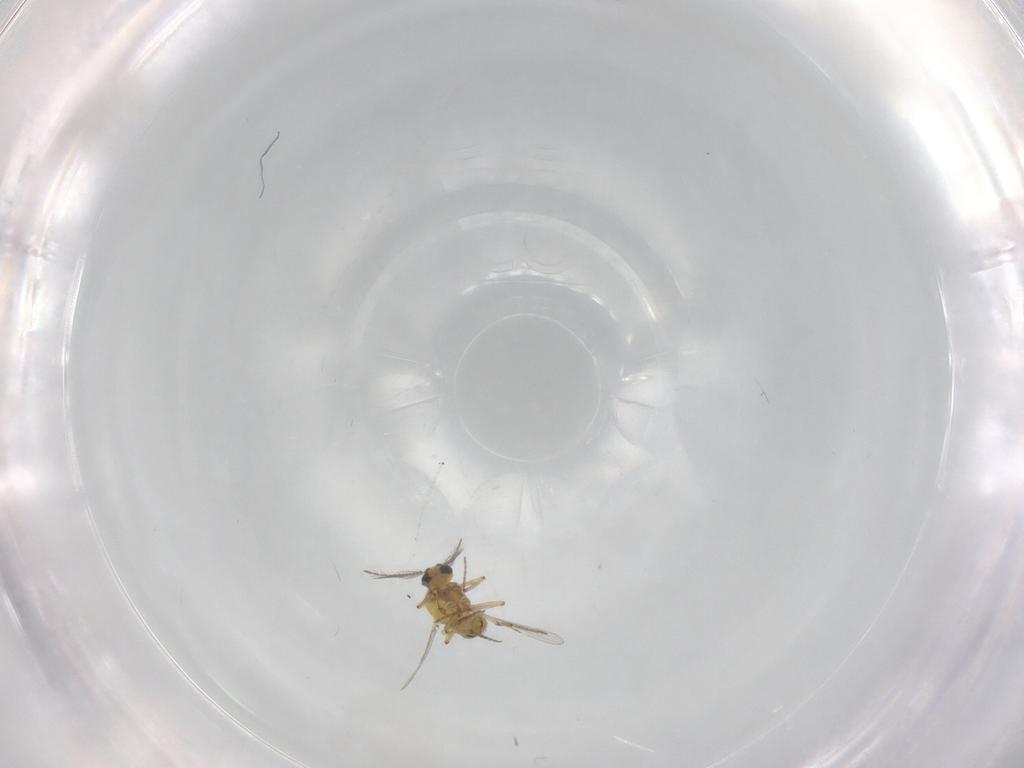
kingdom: Animalia
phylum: Arthropoda
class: Insecta
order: Diptera
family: Ceratopogonidae
